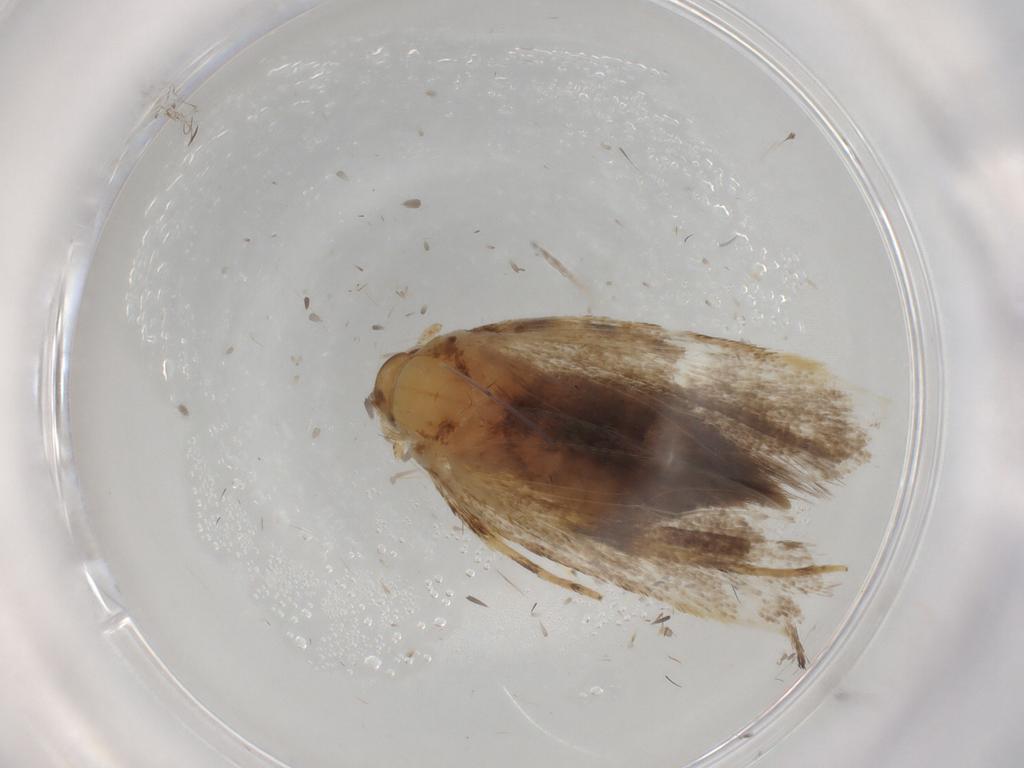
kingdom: Animalia
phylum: Arthropoda
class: Insecta
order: Lepidoptera
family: Lecithoceridae
